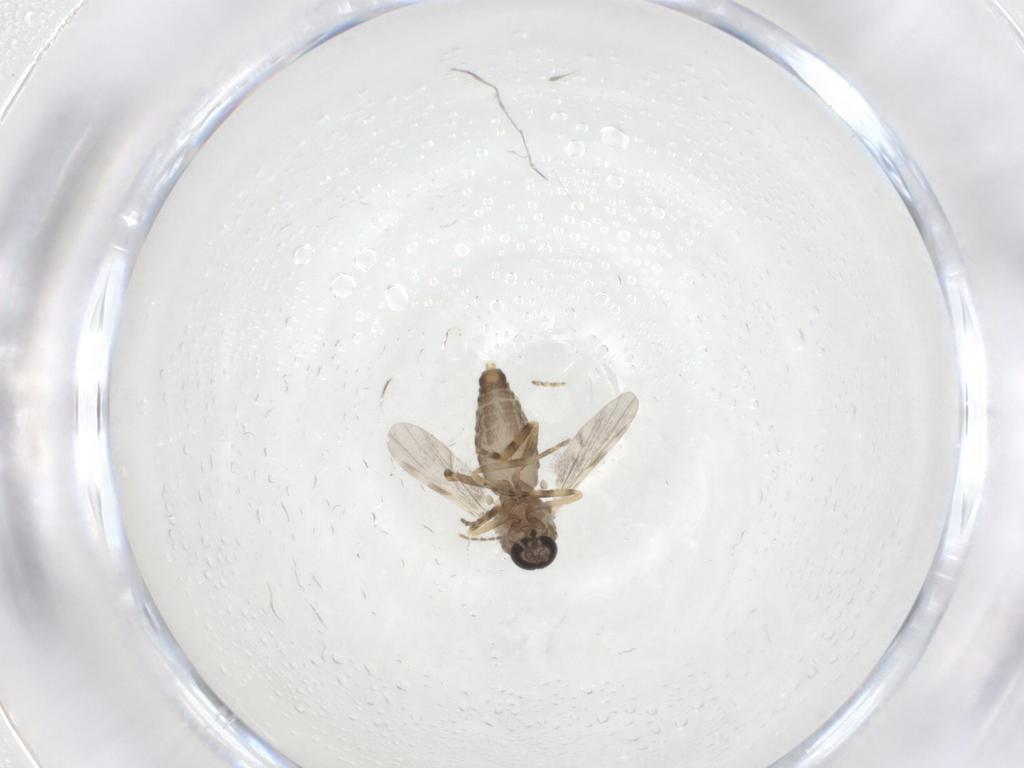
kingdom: Animalia
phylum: Arthropoda
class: Insecta
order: Diptera
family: Ceratopogonidae
